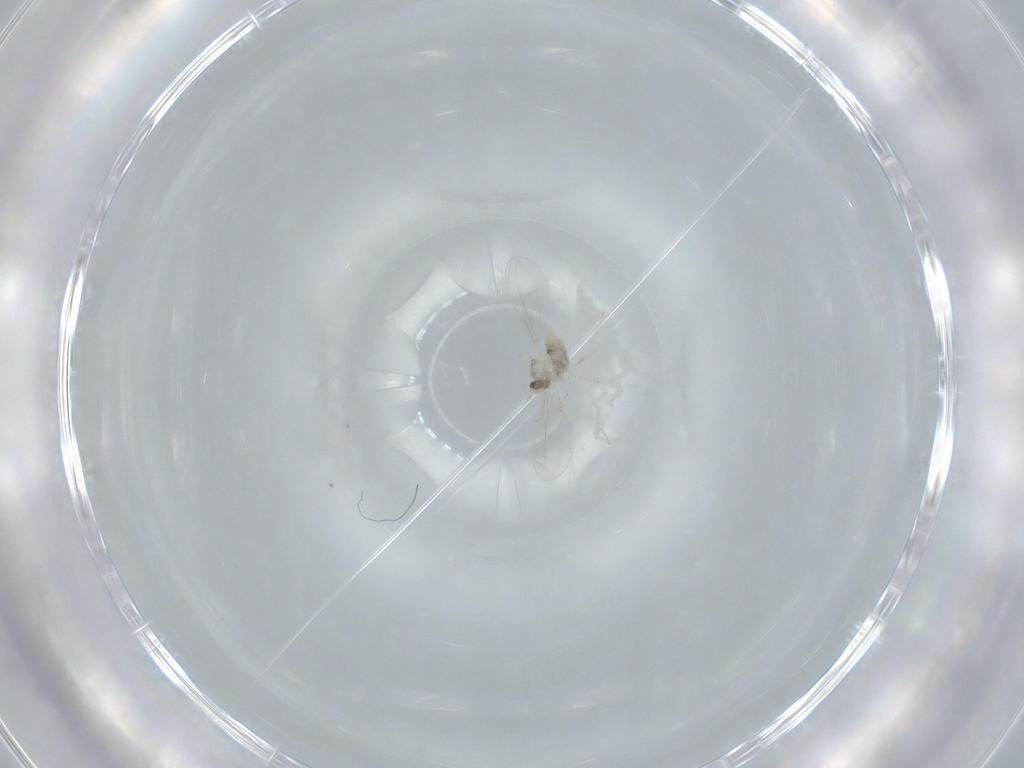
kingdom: Animalia
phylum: Arthropoda
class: Insecta
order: Diptera
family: Cecidomyiidae
